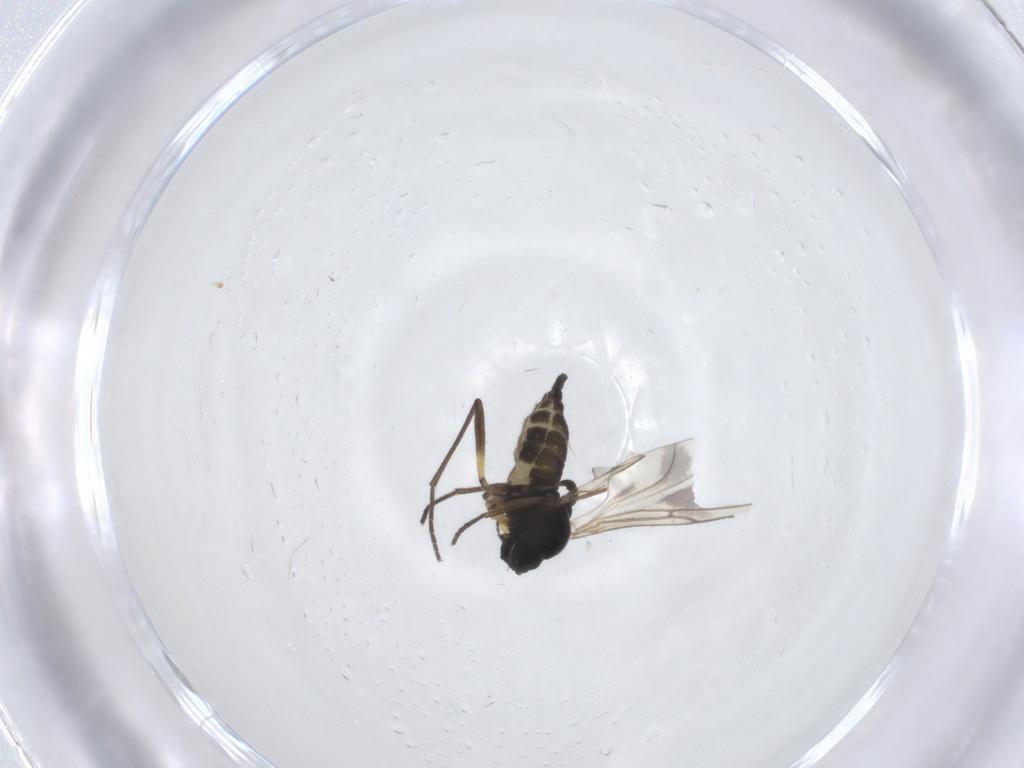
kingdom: Animalia
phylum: Arthropoda
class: Insecta
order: Diptera
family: Sciaridae
